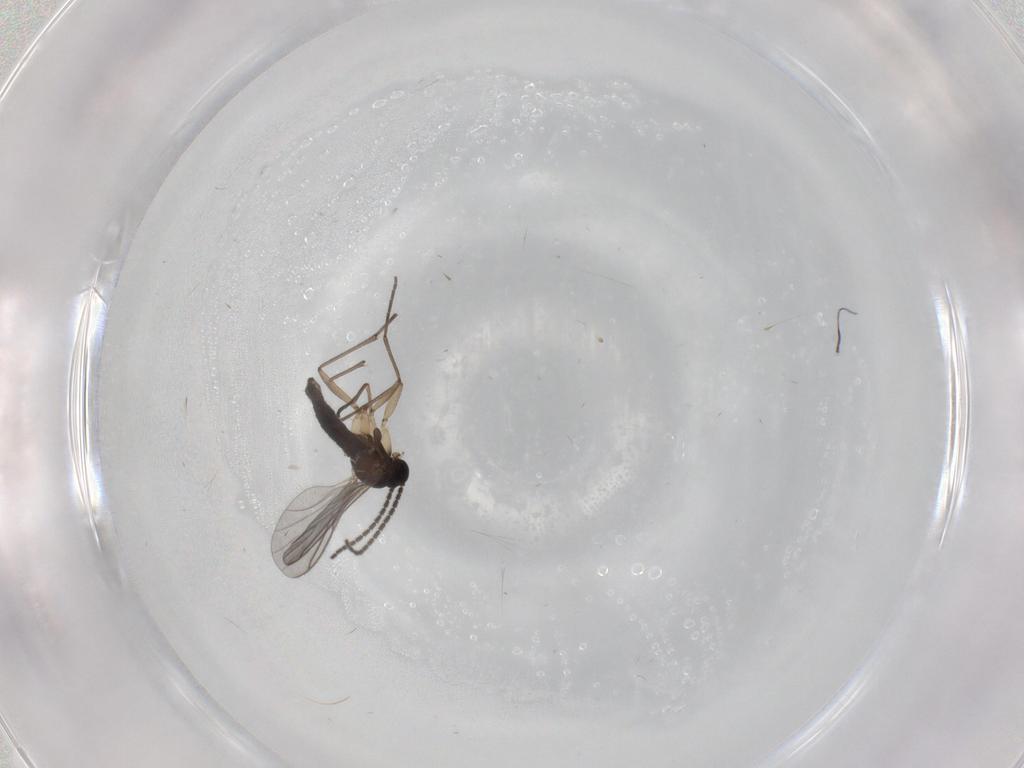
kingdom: Animalia
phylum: Arthropoda
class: Insecta
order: Diptera
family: Sciaridae
